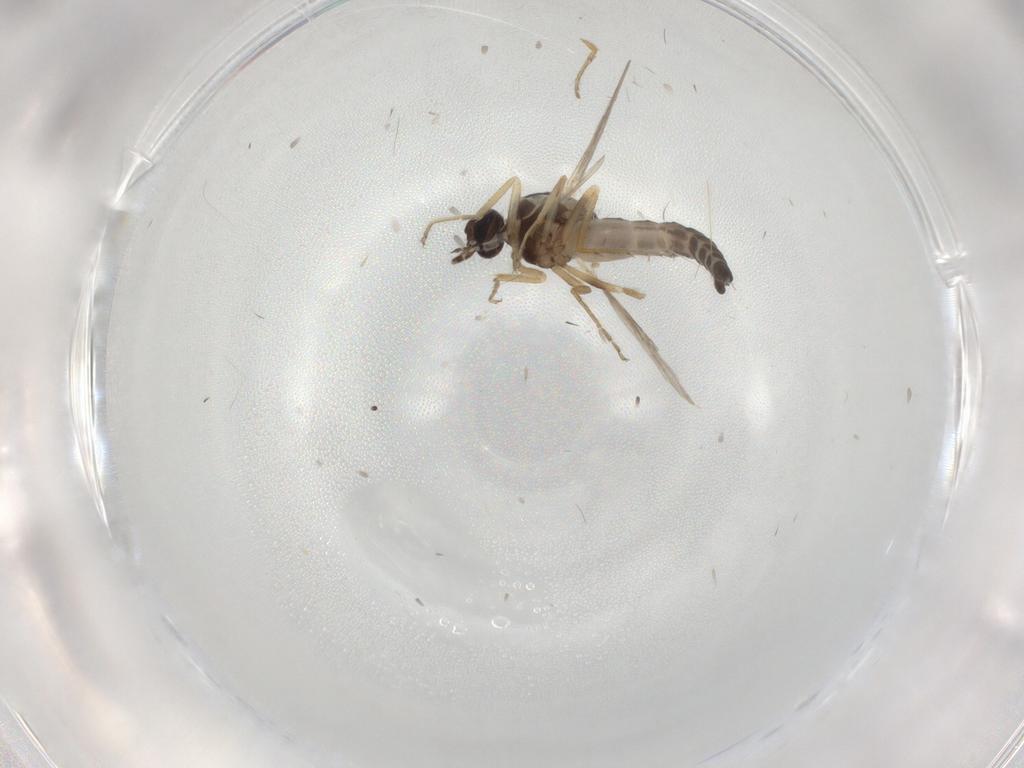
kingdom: Animalia
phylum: Arthropoda
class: Insecta
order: Diptera
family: Ceratopogonidae
